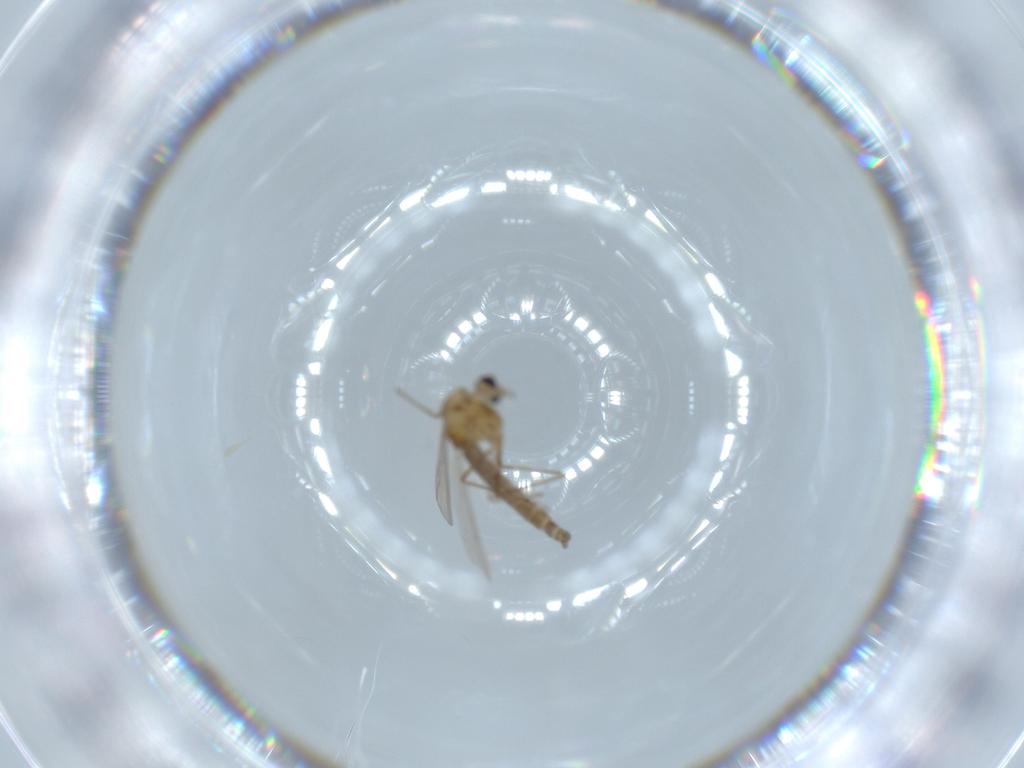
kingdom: Animalia
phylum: Arthropoda
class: Insecta
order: Diptera
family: Chironomidae
